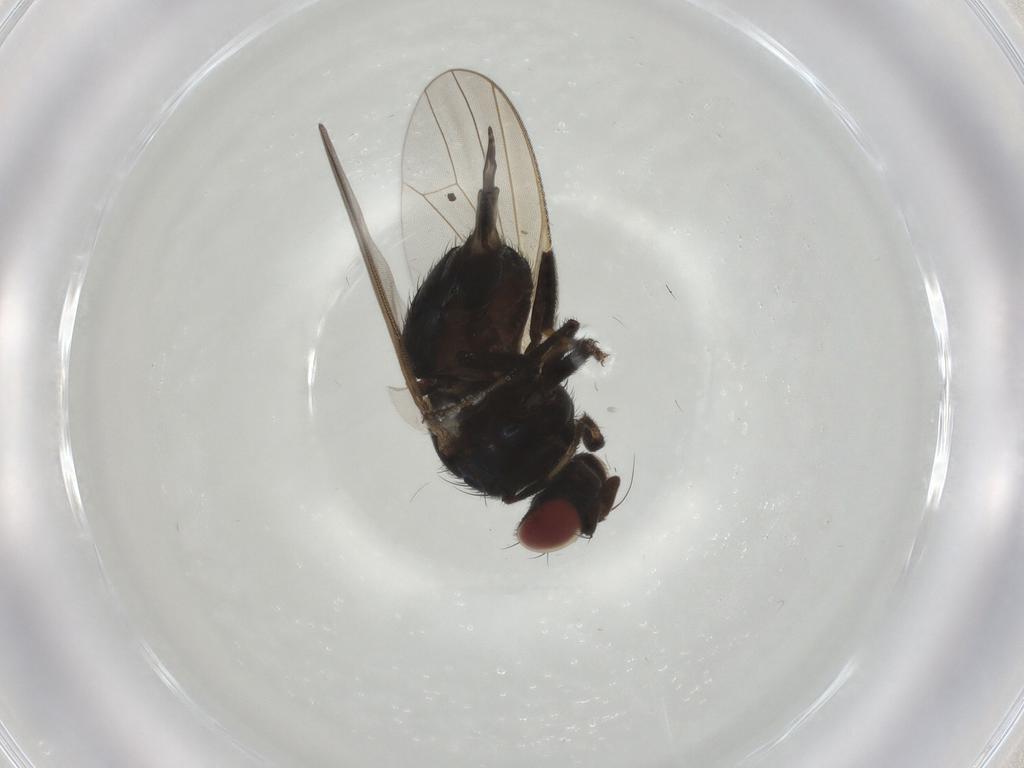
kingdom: Animalia
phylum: Arthropoda
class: Insecta
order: Diptera
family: Lonchaeidae
